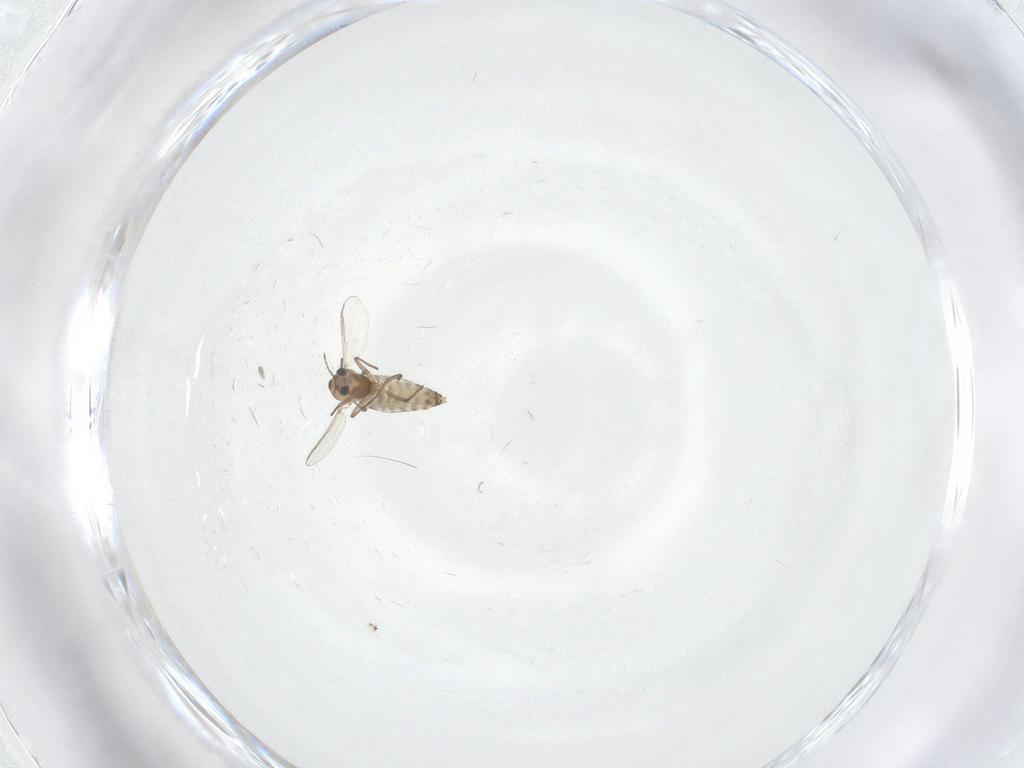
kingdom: Animalia
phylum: Arthropoda
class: Insecta
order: Diptera
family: Chironomidae
